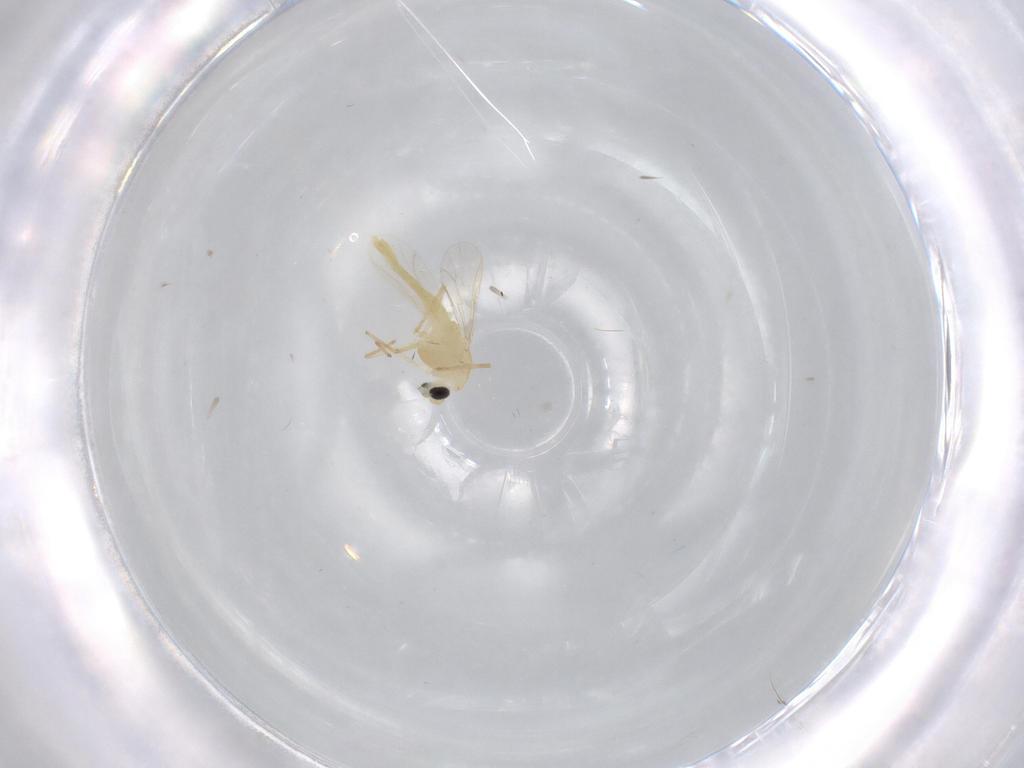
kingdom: Animalia
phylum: Arthropoda
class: Insecta
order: Diptera
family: Chironomidae
